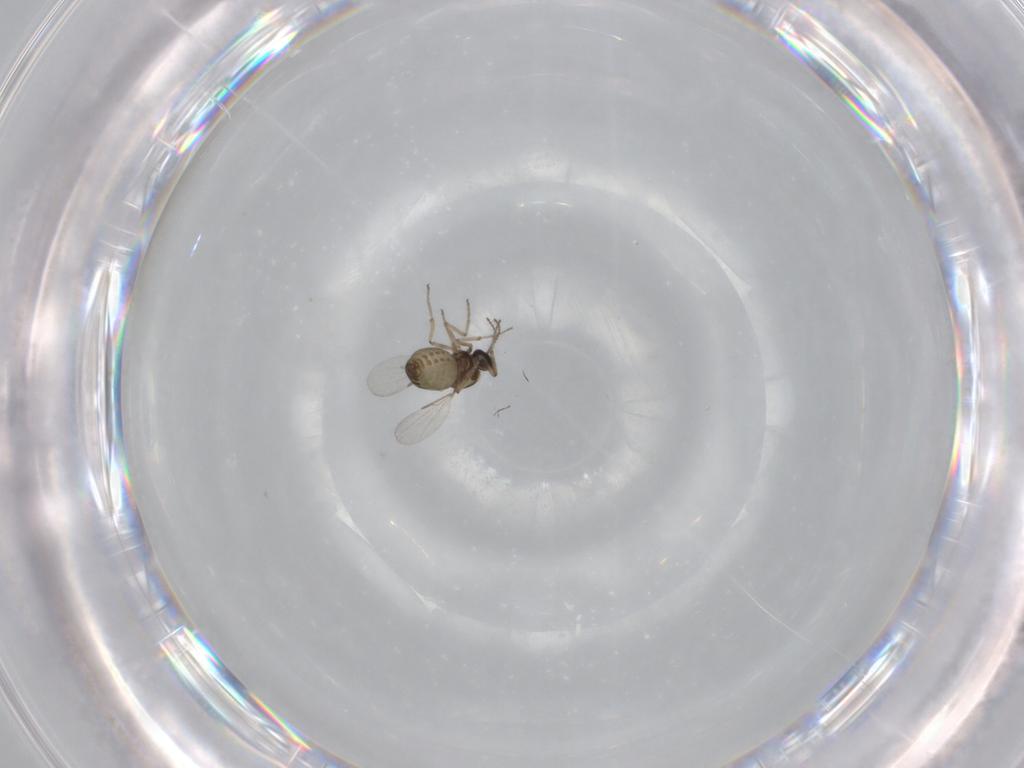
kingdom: Animalia
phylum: Arthropoda
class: Insecta
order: Diptera
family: Ceratopogonidae
